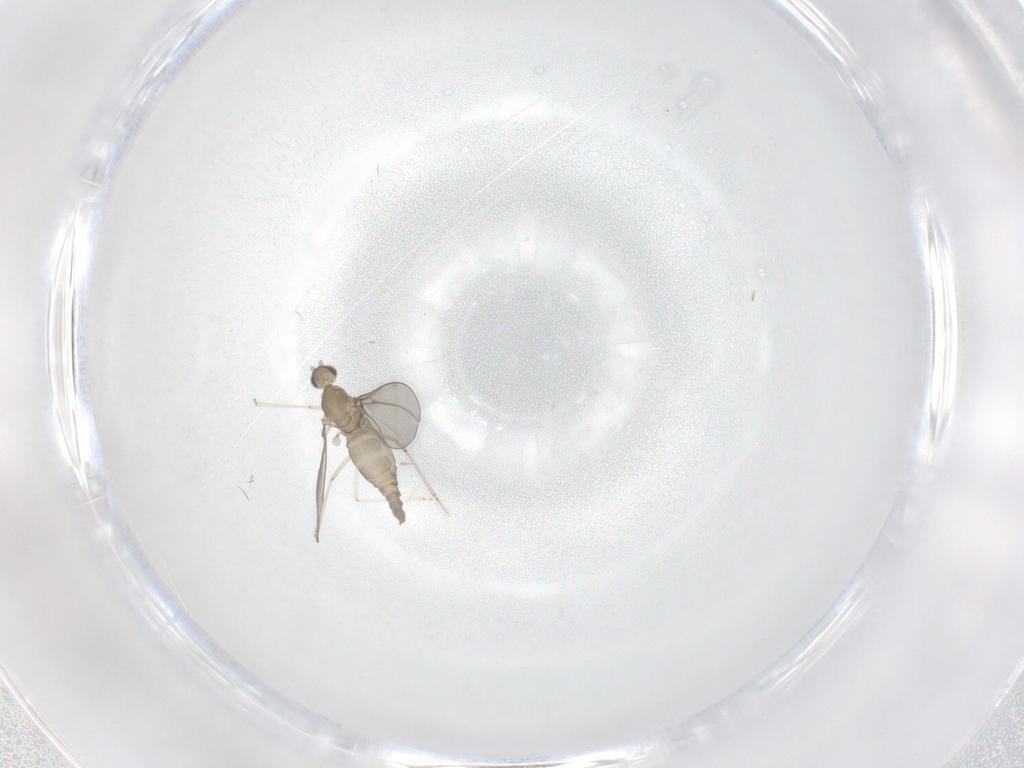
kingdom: Animalia
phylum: Arthropoda
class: Insecta
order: Diptera
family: Cecidomyiidae
